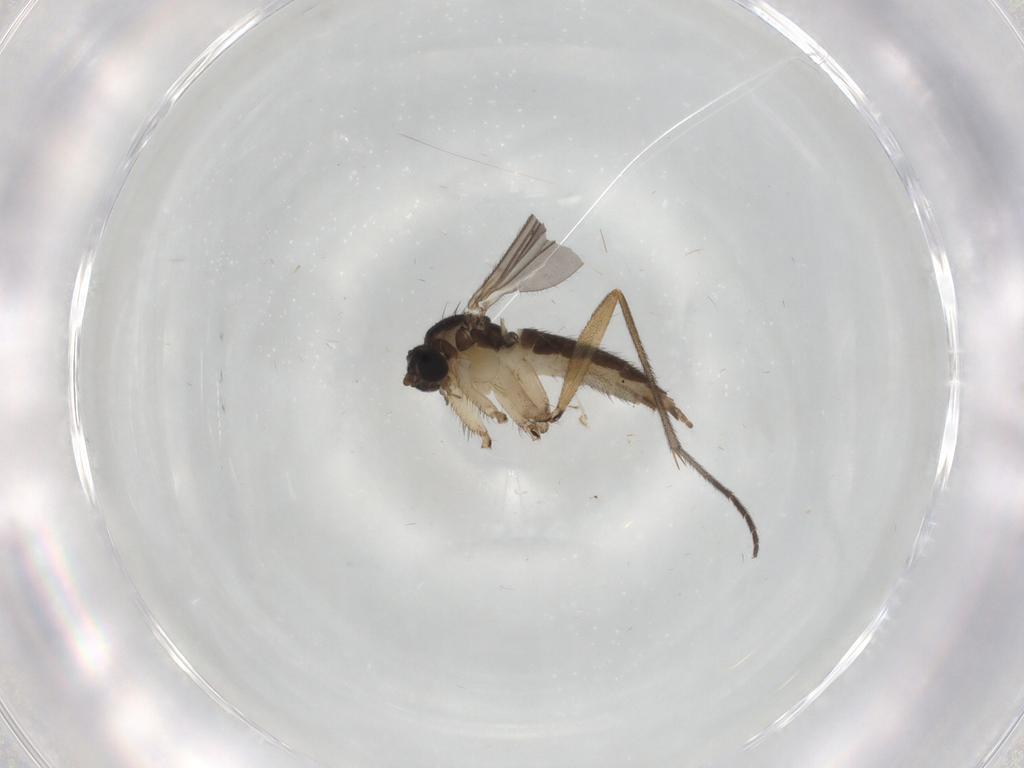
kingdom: Animalia
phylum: Arthropoda
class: Insecta
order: Diptera
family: Sciaridae
